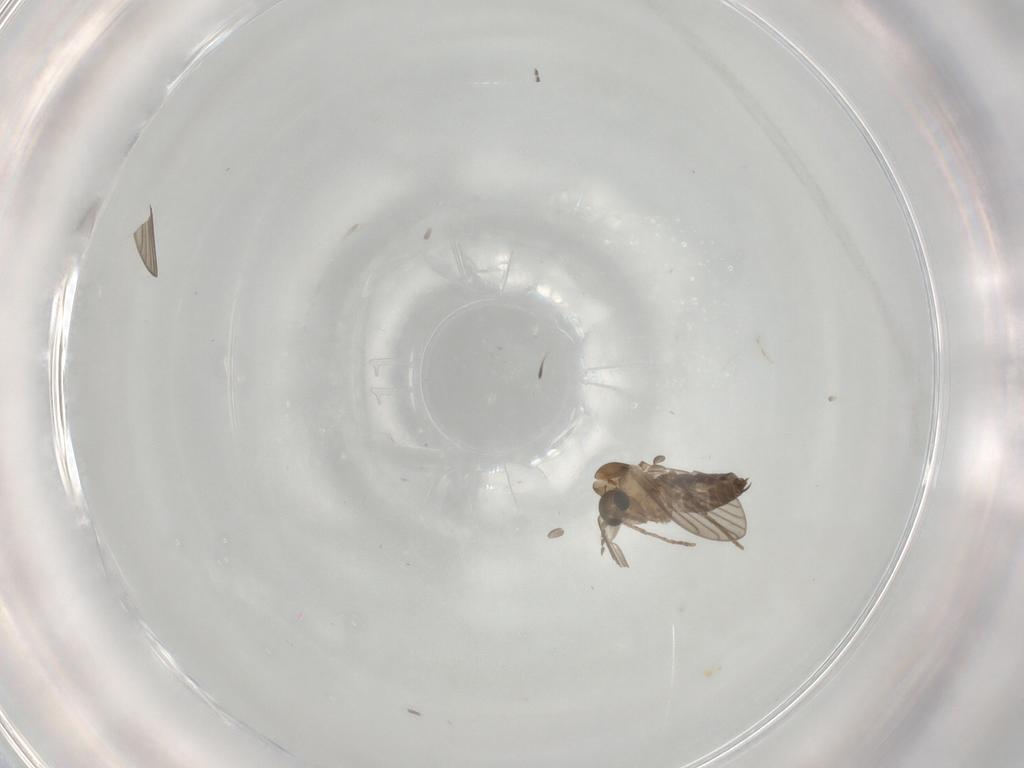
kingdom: Animalia
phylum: Arthropoda
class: Insecta
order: Diptera
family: Psychodidae
